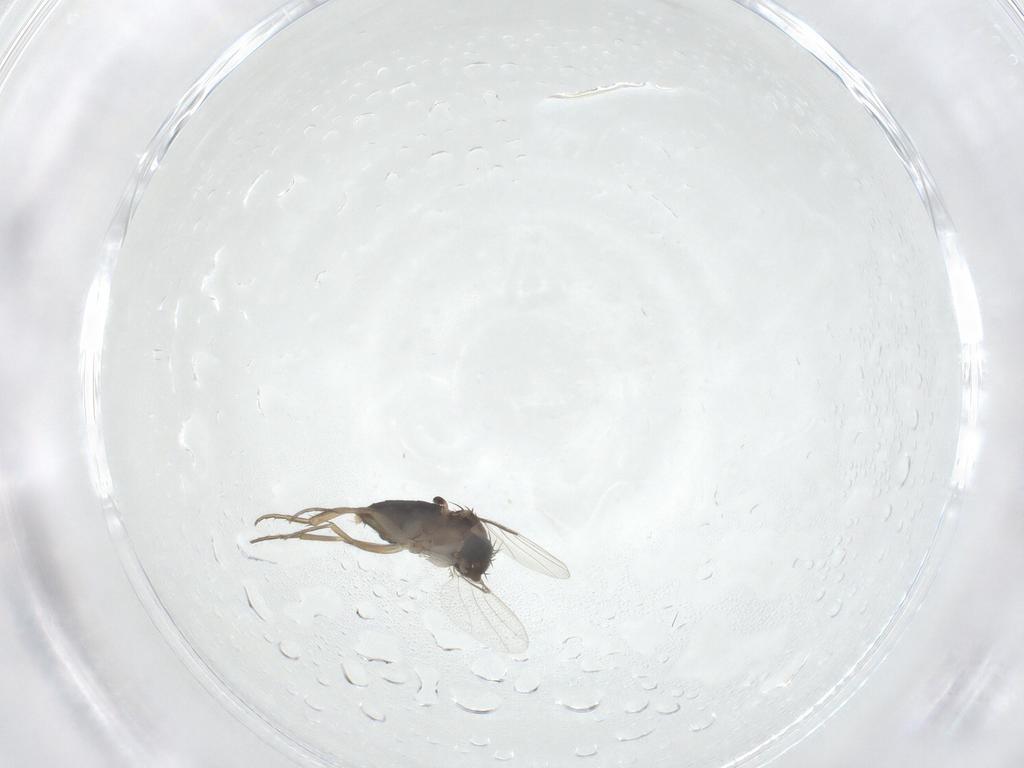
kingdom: Animalia
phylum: Arthropoda
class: Insecta
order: Diptera
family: Phoridae
